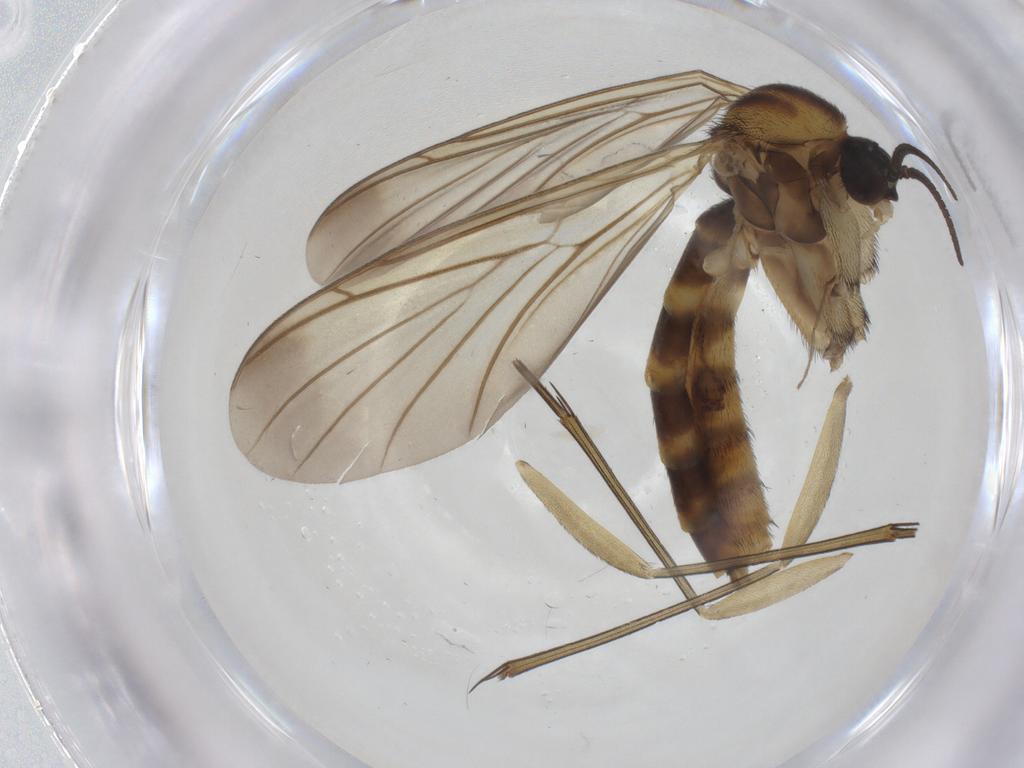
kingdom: Animalia
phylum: Arthropoda
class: Insecta
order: Diptera
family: Keroplatidae
